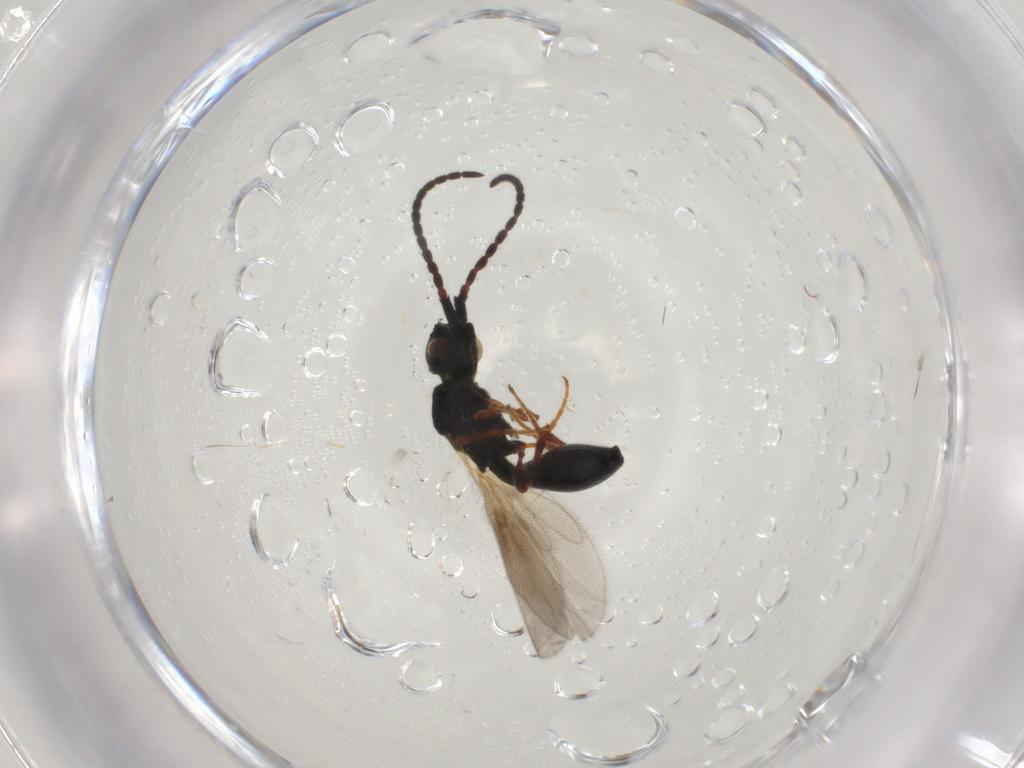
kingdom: Animalia
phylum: Arthropoda
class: Insecta
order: Diptera
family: Cecidomyiidae
